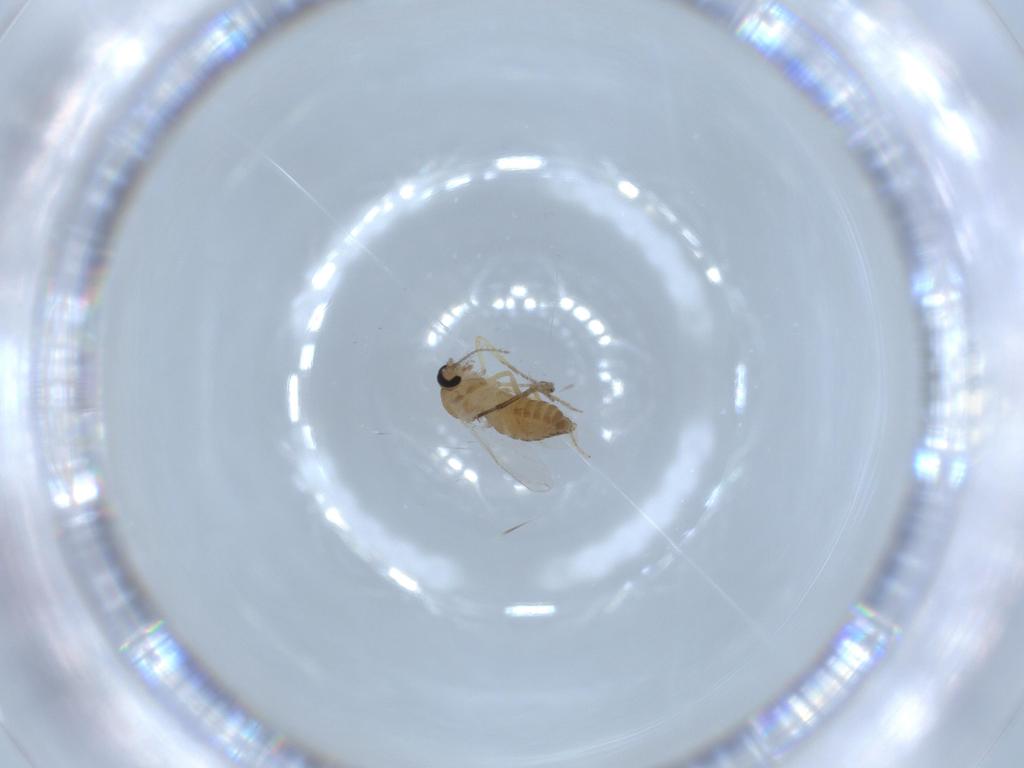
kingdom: Animalia
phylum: Arthropoda
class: Insecta
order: Diptera
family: Ceratopogonidae
